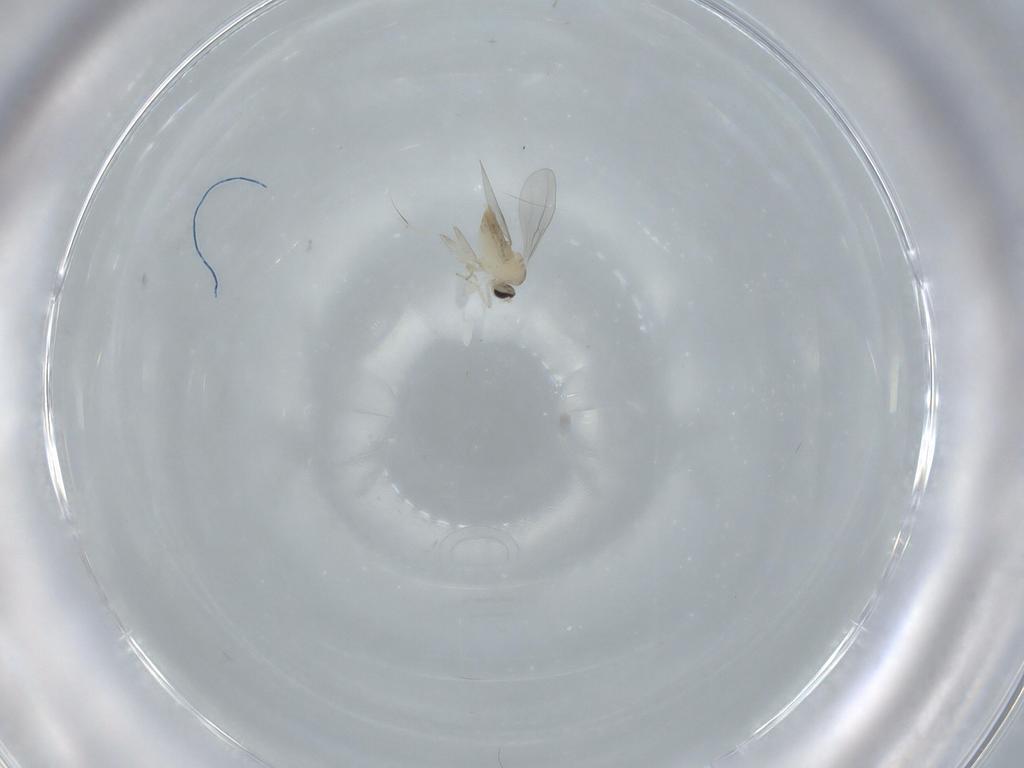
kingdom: Animalia
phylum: Arthropoda
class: Insecta
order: Diptera
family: Cecidomyiidae
